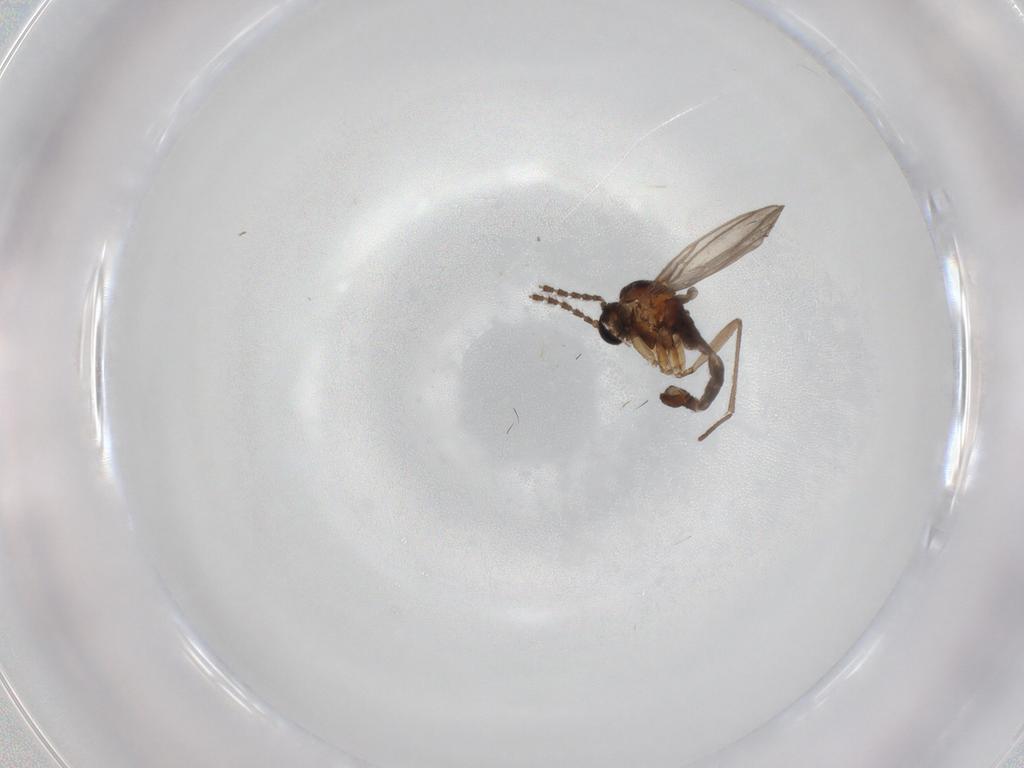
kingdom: Animalia
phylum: Arthropoda
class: Insecta
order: Diptera
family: Sciaridae
